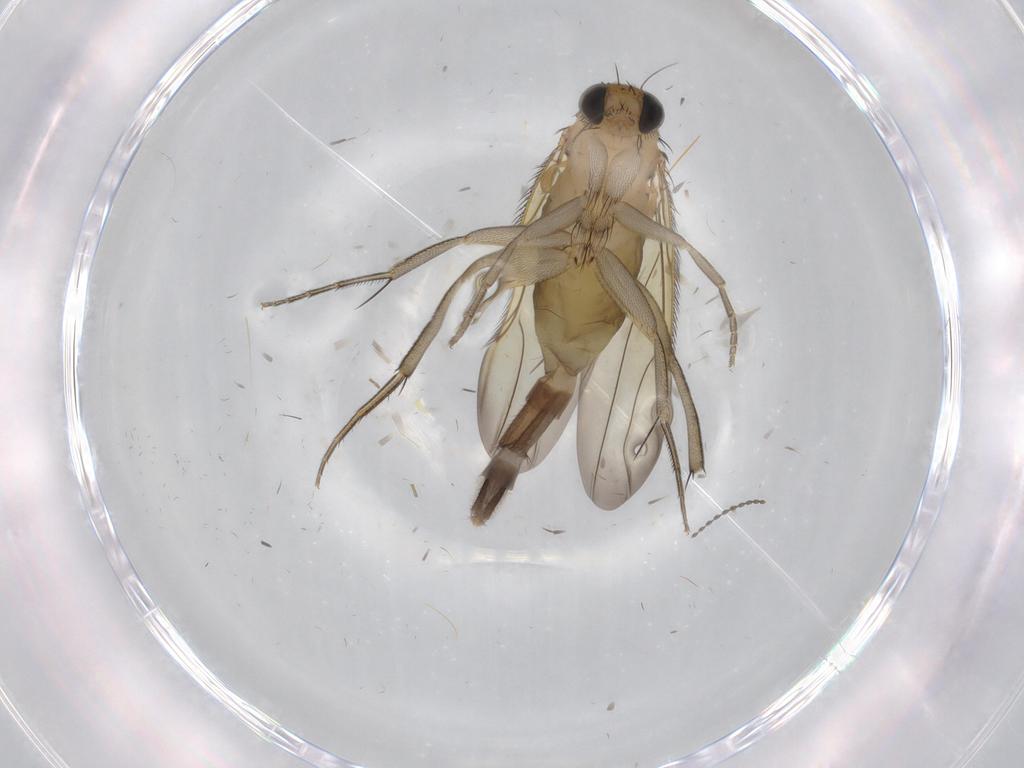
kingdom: Animalia
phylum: Arthropoda
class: Insecta
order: Diptera
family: Phoridae
